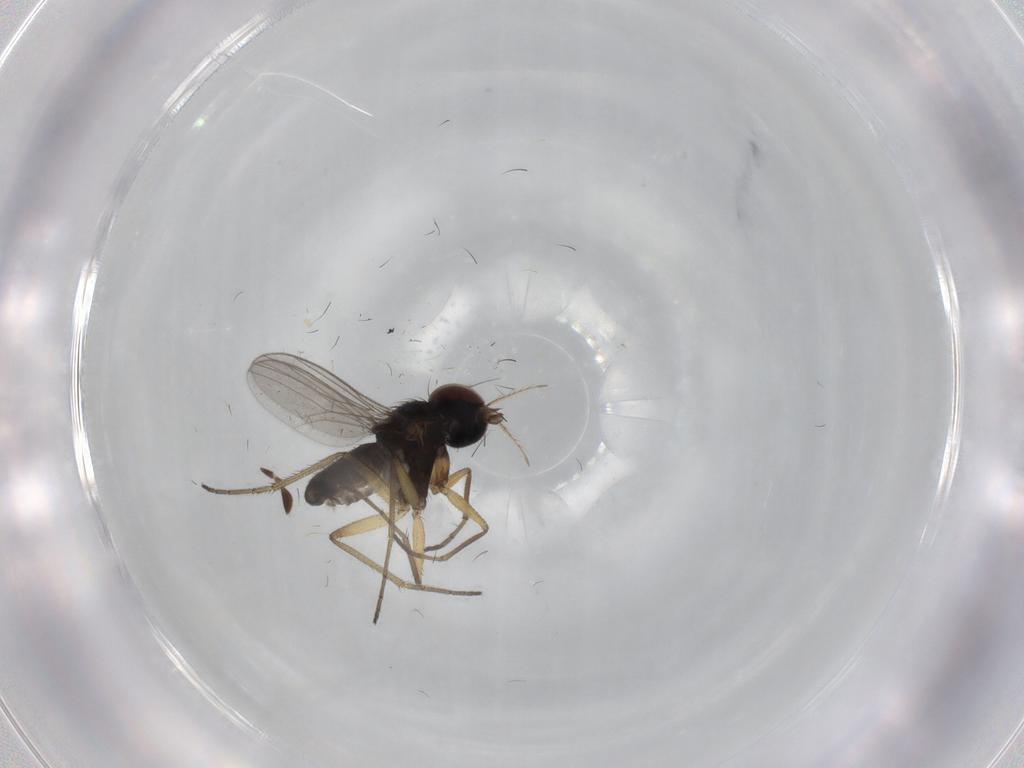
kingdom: Animalia
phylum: Arthropoda
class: Insecta
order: Diptera
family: Dolichopodidae
